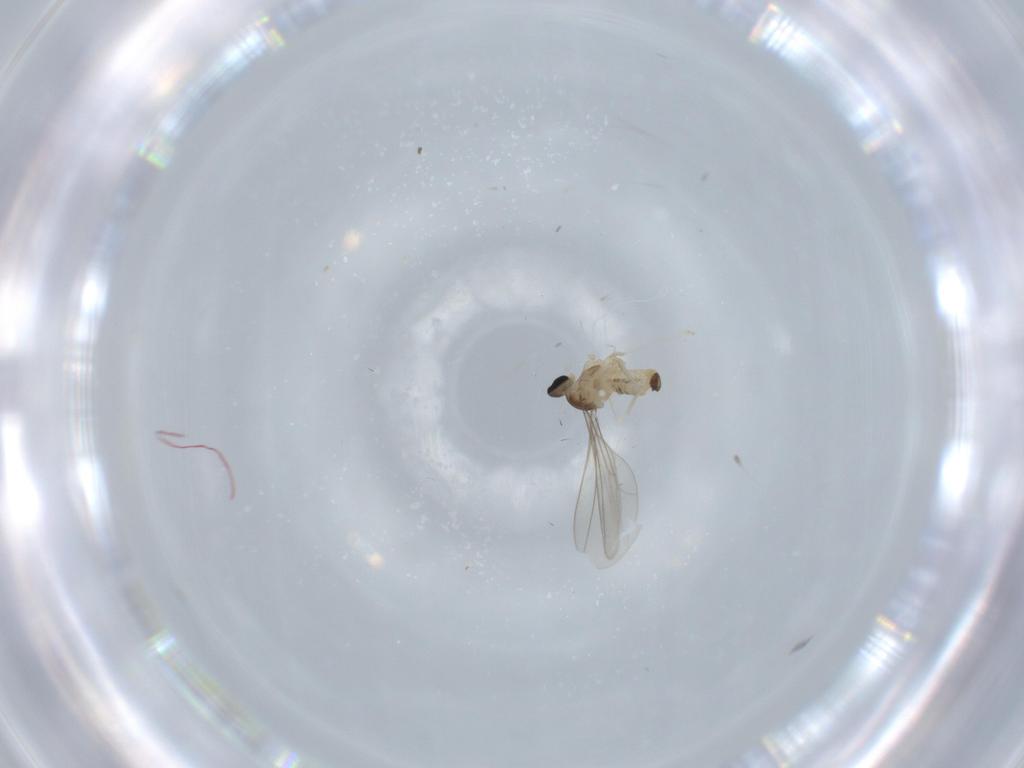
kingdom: Animalia
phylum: Arthropoda
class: Insecta
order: Diptera
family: Cecidomyiidae
